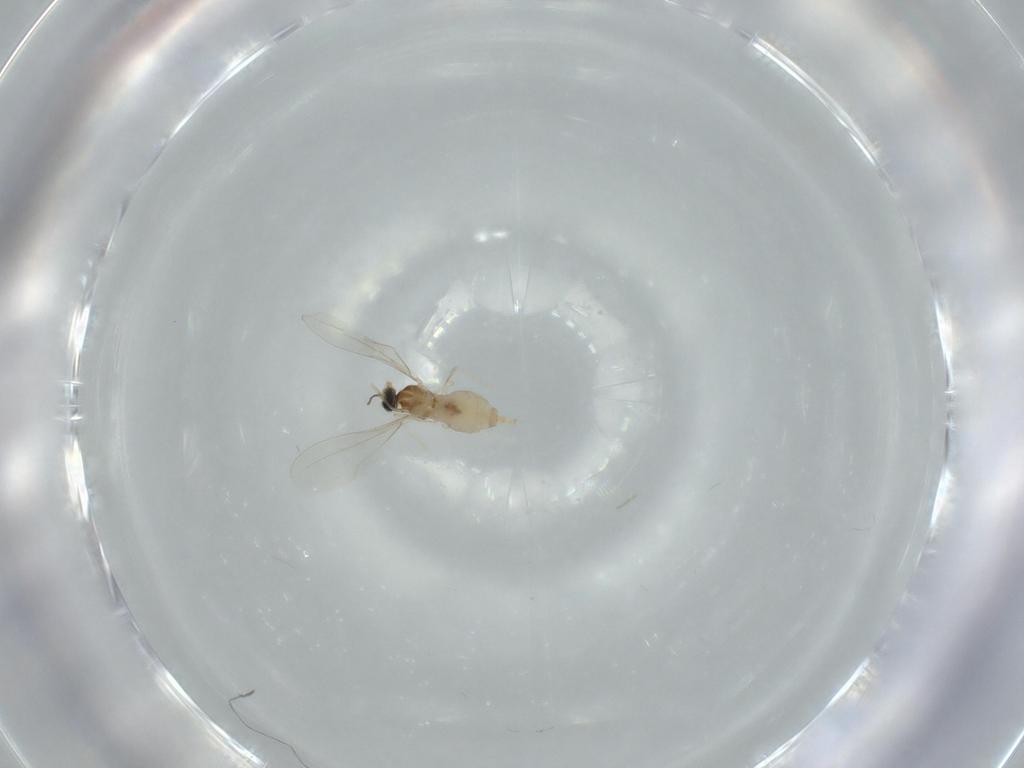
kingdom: Animalia
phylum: Arthropoda
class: Insecta
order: Diptera
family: Cecidomyiidae
